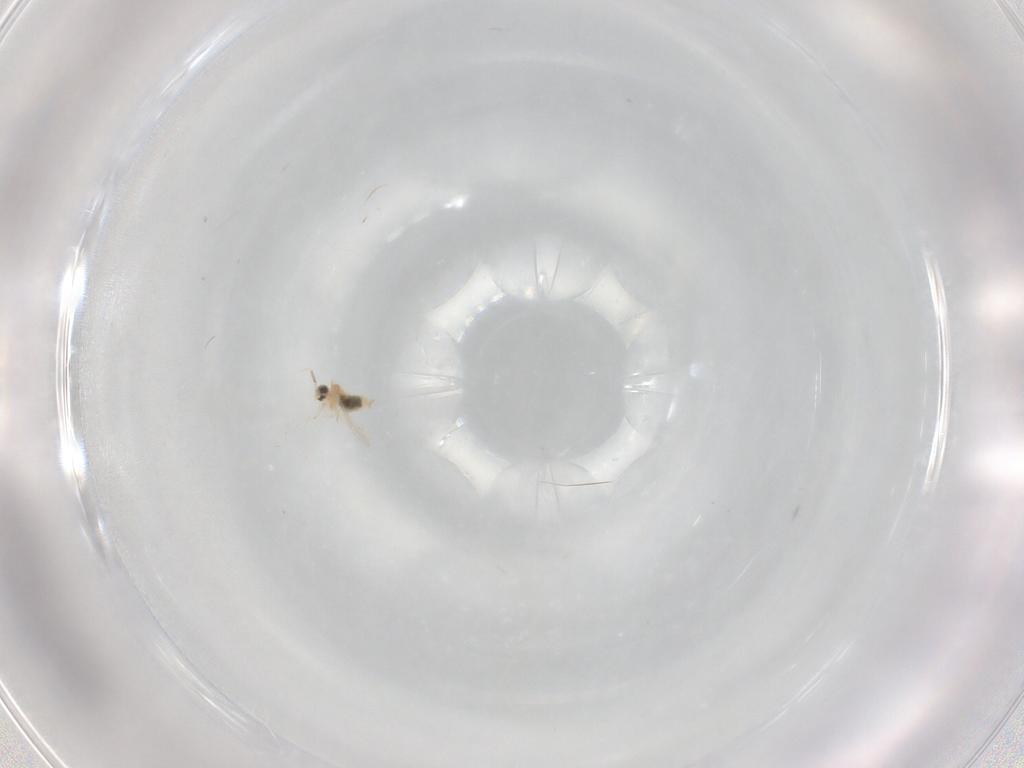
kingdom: Animalia
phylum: Arthropoda
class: Insecta
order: Diptera
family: Cecidomyiidae
